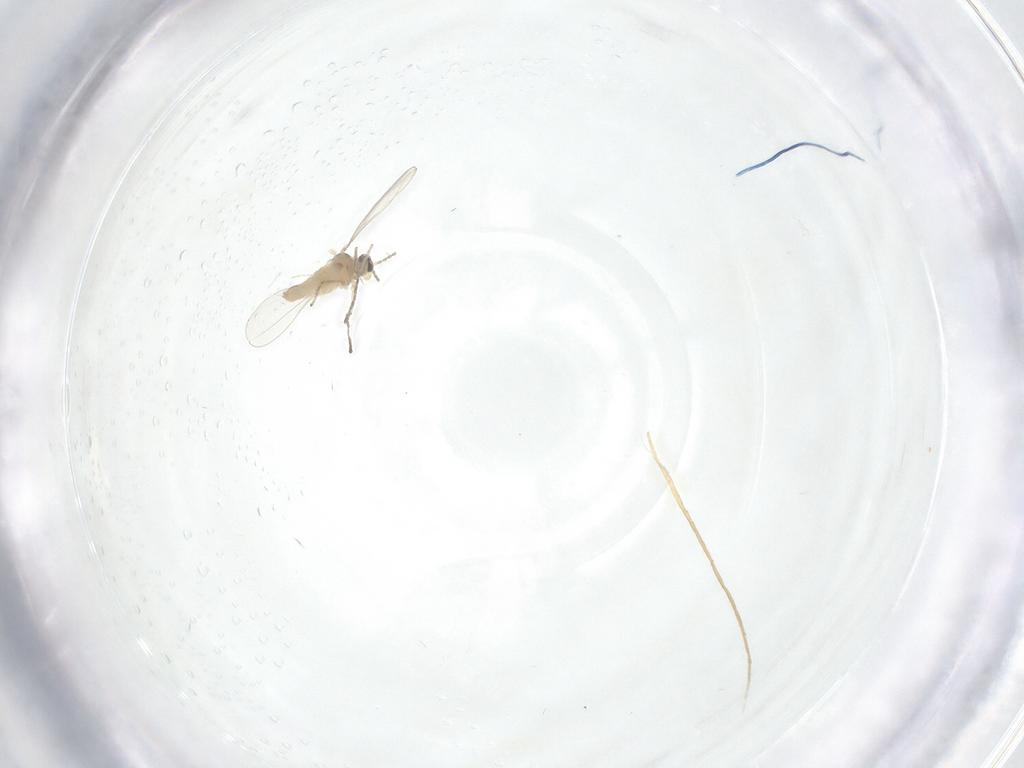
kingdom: Animalia
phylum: Arthropoda
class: Insecta
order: Diptera
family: Cecidomyiidae
